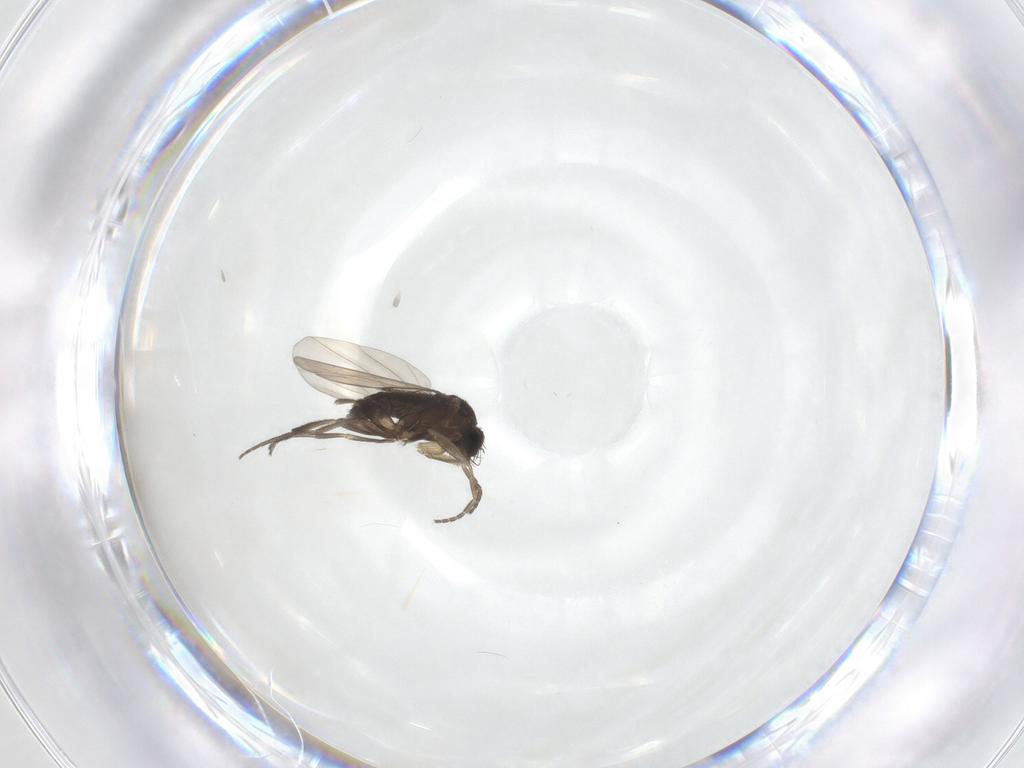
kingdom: Animalia
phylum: Arthropoda
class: Insecta
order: Diptera
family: Phoridae
